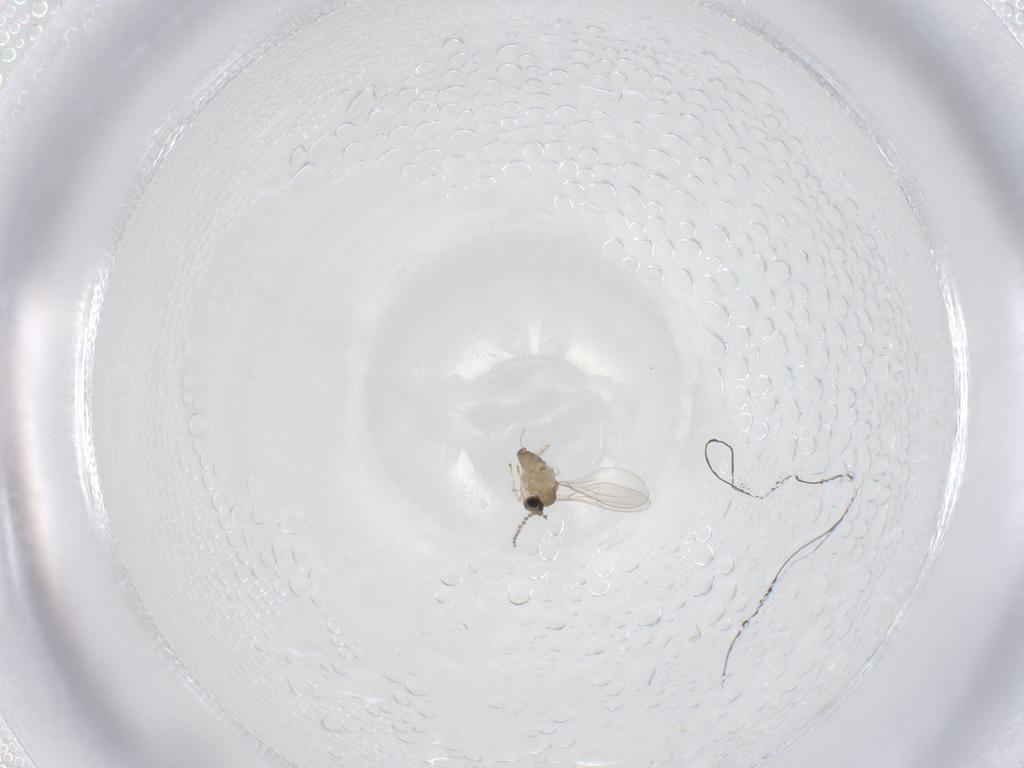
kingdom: Animalia
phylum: Arthropoda
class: Insecta
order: Diptera
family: Cecidomyiidae
